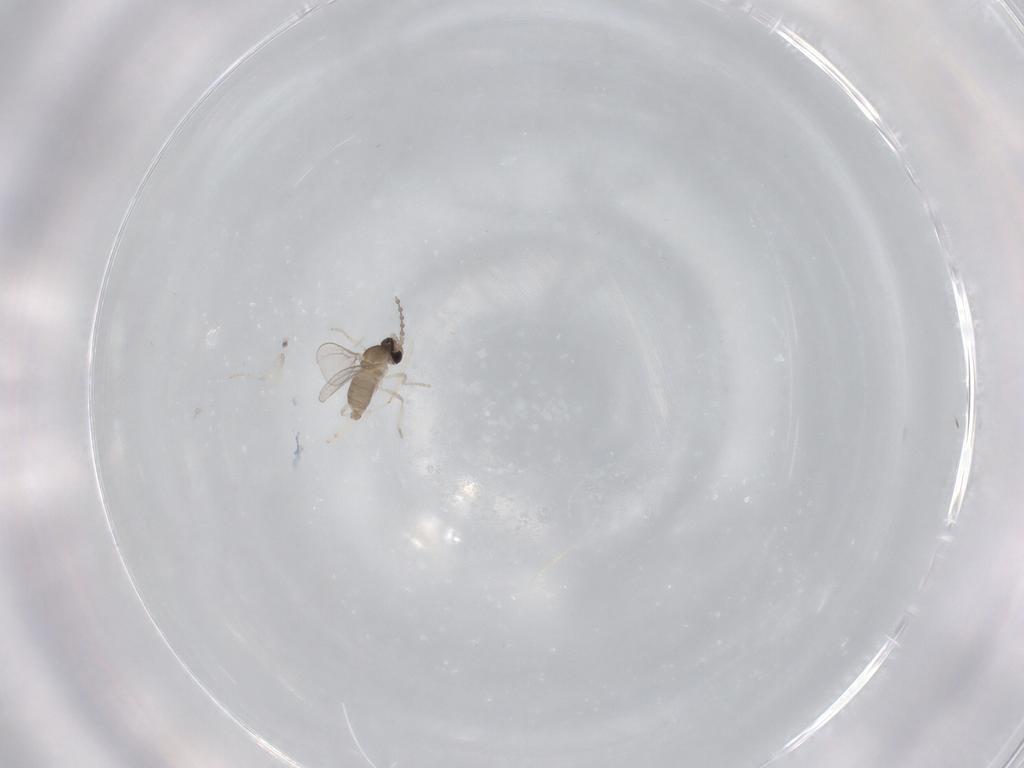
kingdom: Animalia
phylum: Arthropoda
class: Insecta
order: Diptera
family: Cecidomyiidae
